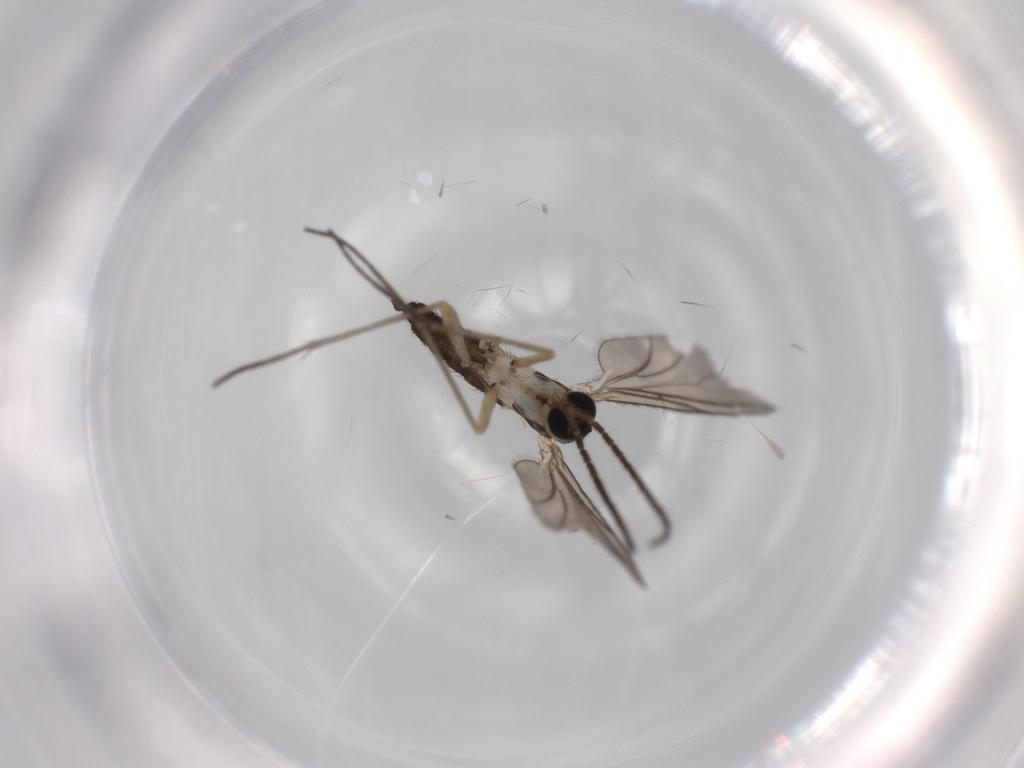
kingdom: Animalia
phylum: Arthropoda
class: Insecta
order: Diptera
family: Sciaridae
